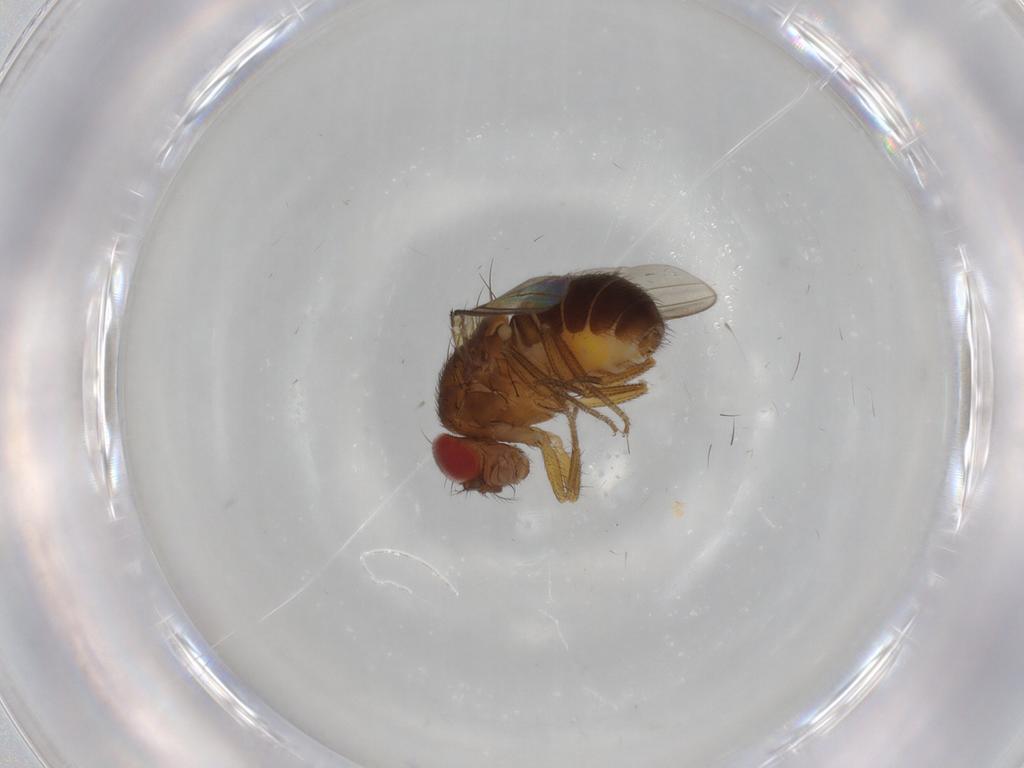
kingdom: Animalia
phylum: Arthropoda
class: Insecta
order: Diptera
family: Drosophilidae
